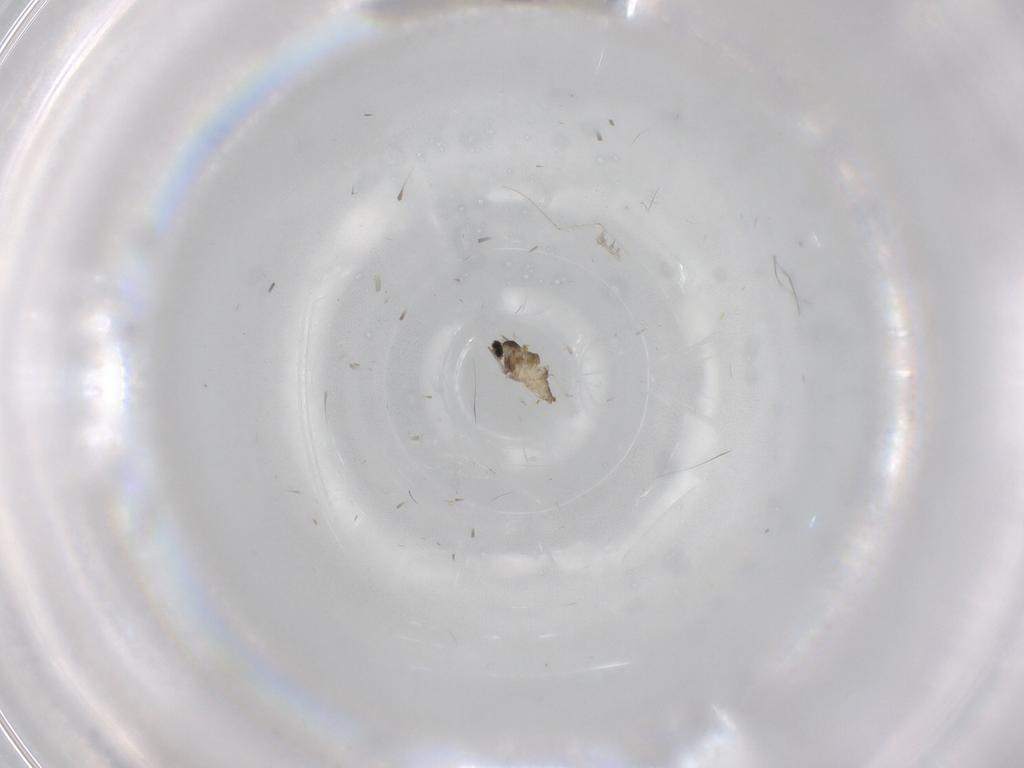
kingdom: Animalia
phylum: Arthropoda
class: Insecta
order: Diptera
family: Cecidomyiidae
